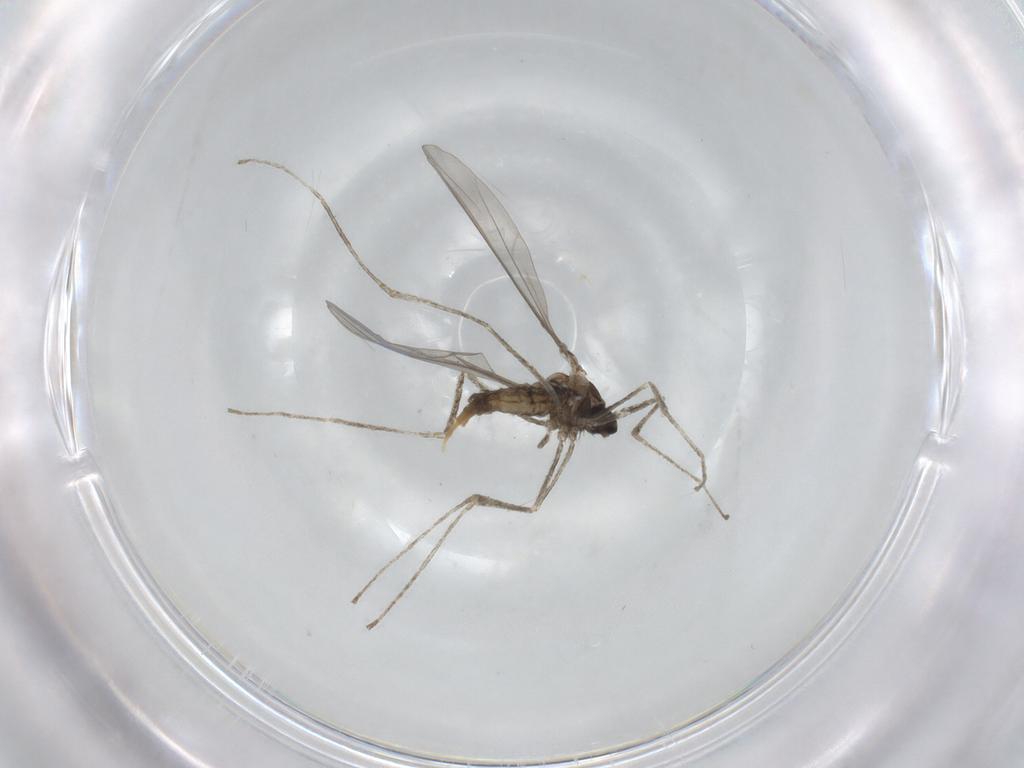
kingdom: Animalia
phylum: Arthropoda
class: Insecta
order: Diptera
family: Cecidomyiidae
